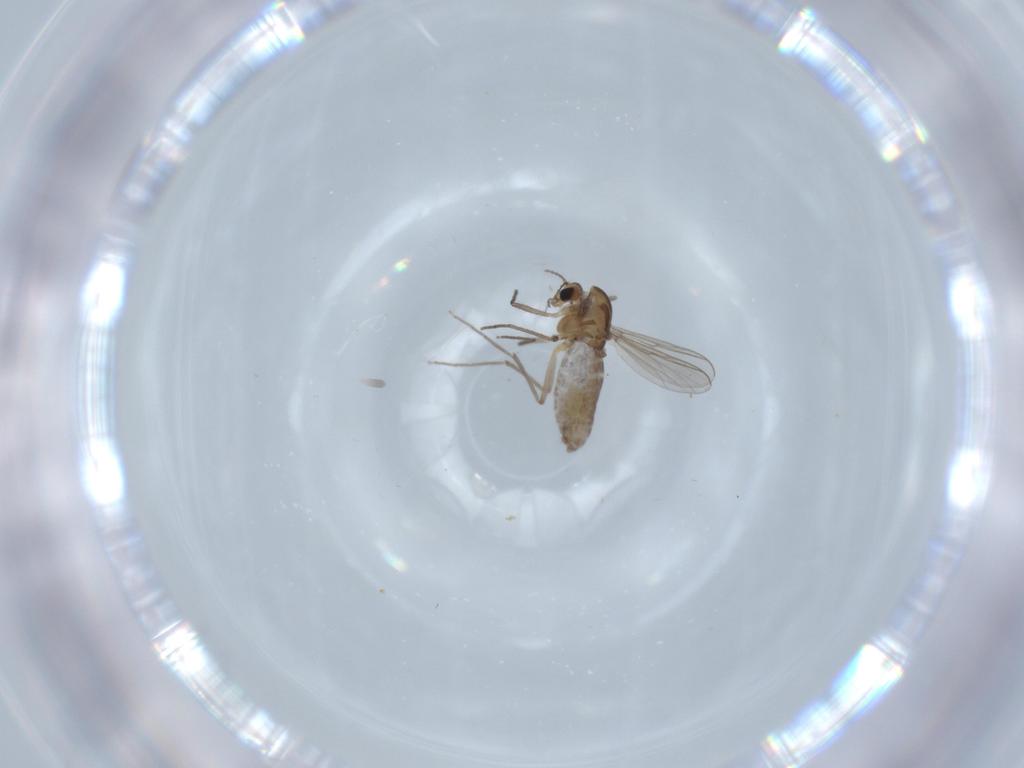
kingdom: Animalia
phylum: Arthropoda
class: Insecta
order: Diptera
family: Chironomidae
